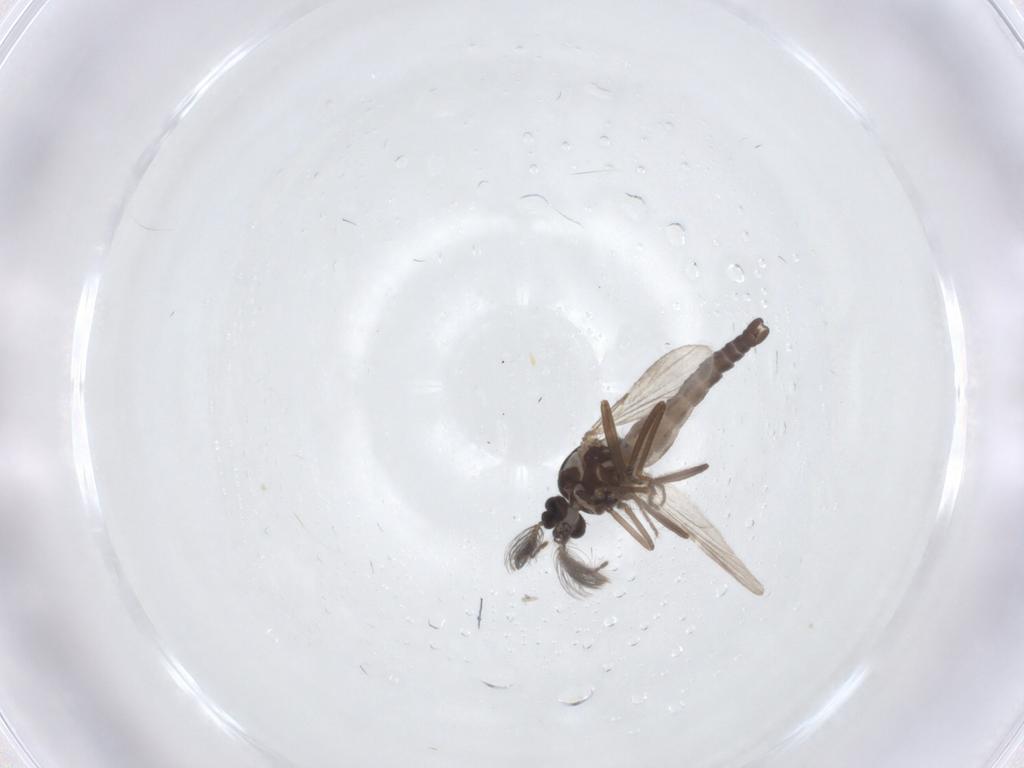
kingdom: Animalia
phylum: Arthropoda
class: Insecta
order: Diptera
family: Ceratopogonidae
